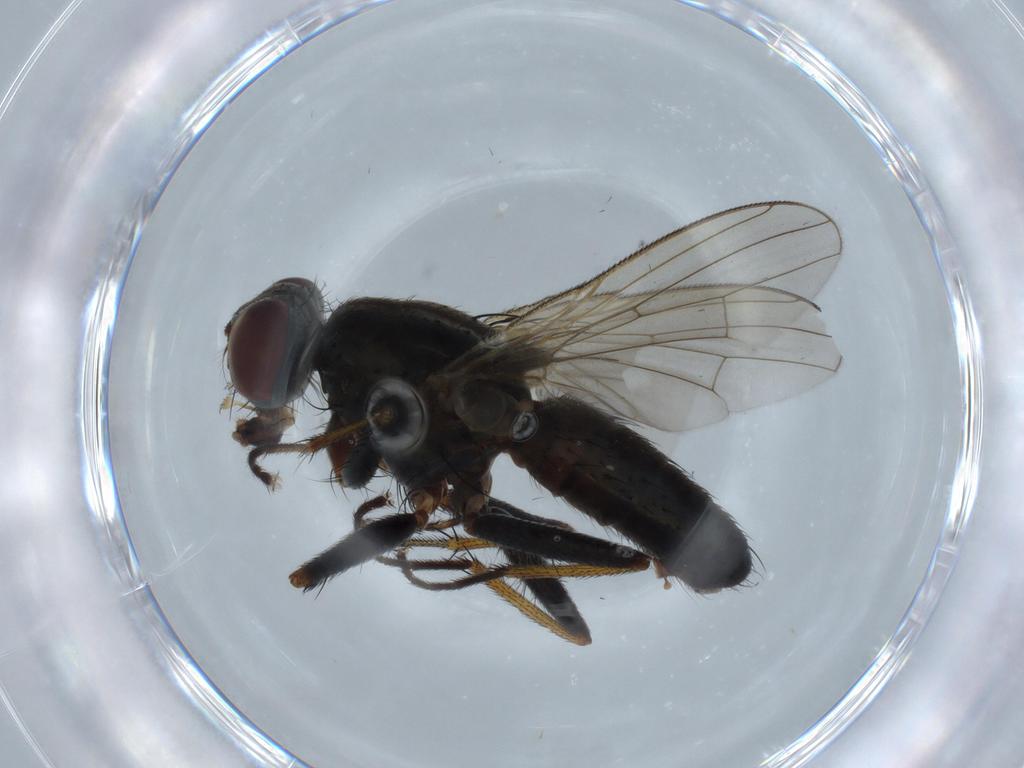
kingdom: Animalia
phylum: Arthropoda
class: Insecta
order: Diptera
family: Muscidae
